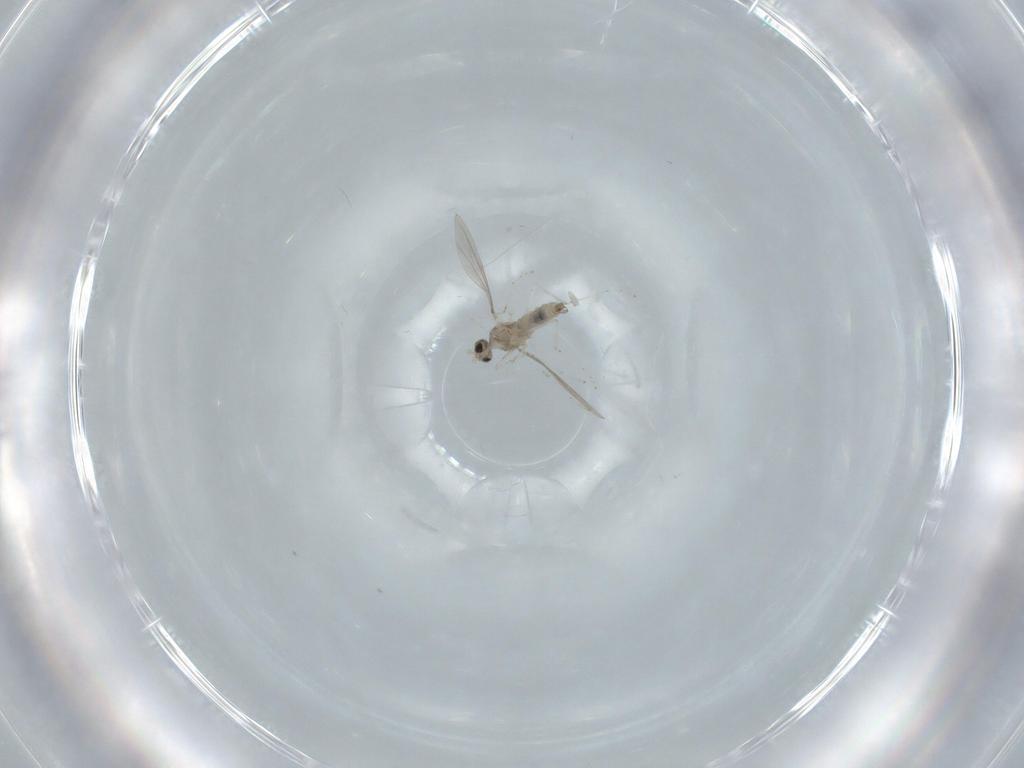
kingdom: Animalia
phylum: Arthropoda
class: Insecta
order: Diptera
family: Cecidomyiidae
